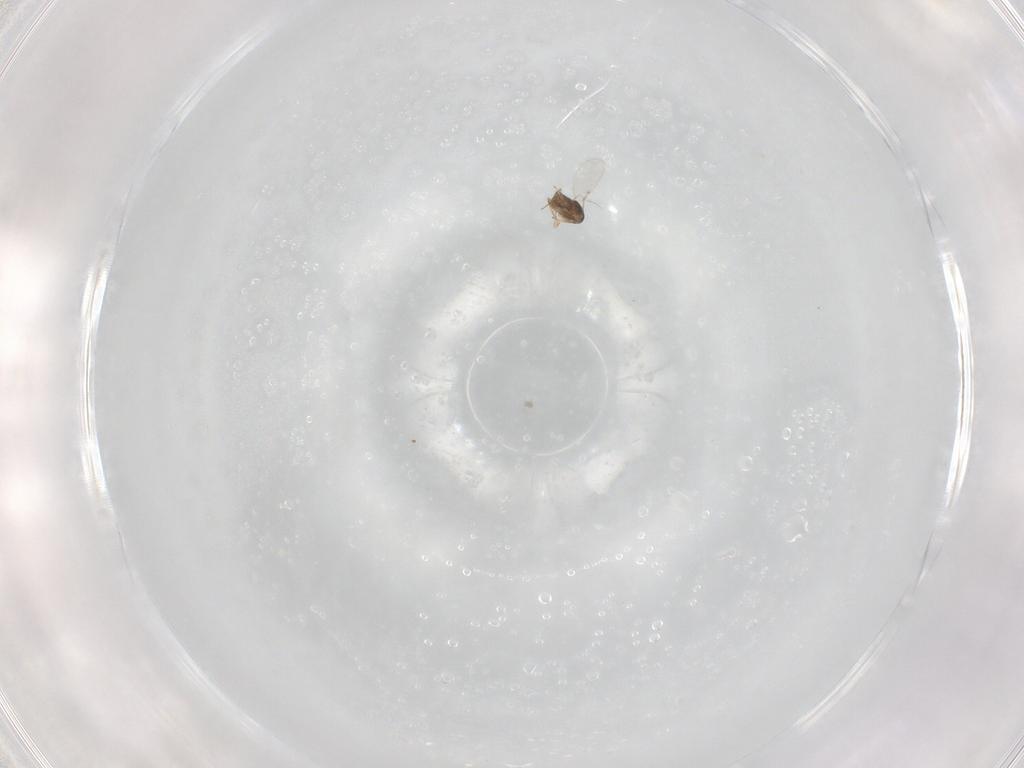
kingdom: Animalia
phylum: Arthropoda
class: Insecta
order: Hymenoptera
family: Encyrtidae
